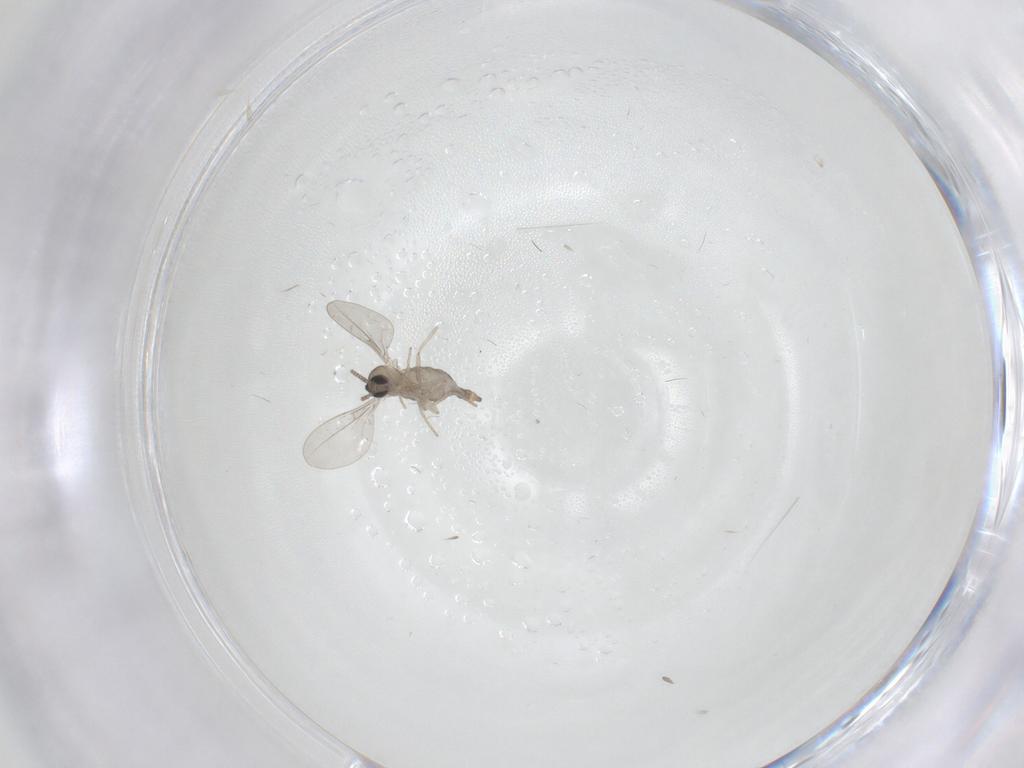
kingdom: Animalia
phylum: Arthropoda
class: Insecta
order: Diptera
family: Cecidomyiidae
